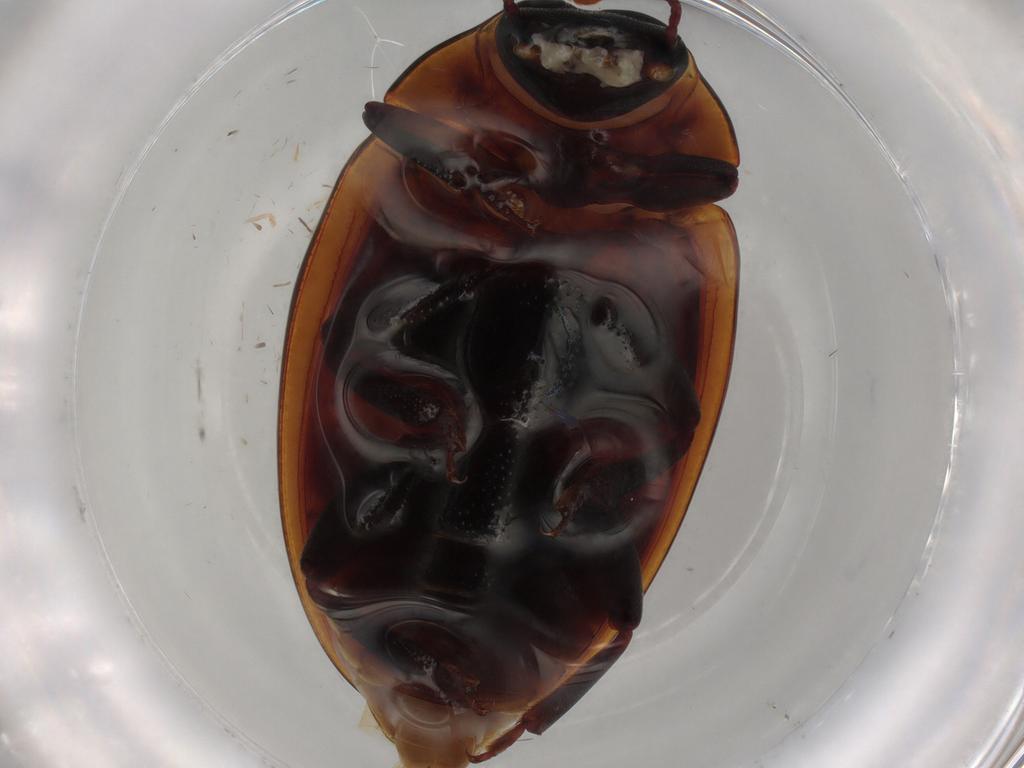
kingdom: Animalia
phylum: Arthropoda
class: Insecta
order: Coleoptera
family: Zopheridae
